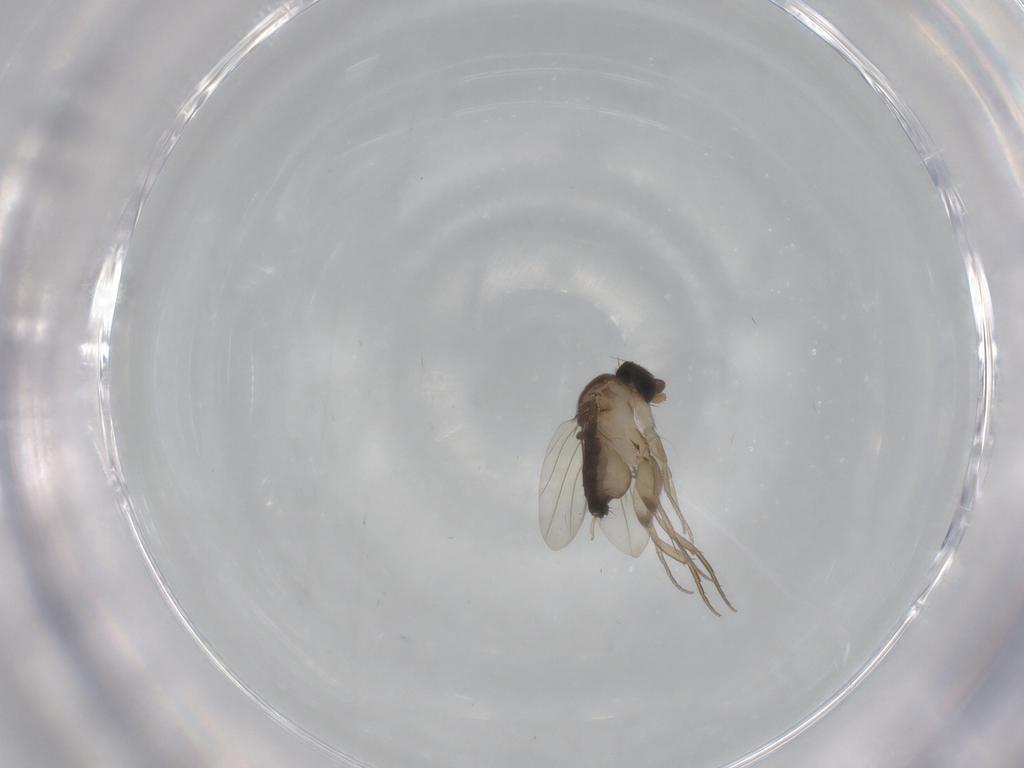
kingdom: Animalia
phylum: Arthropoda
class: Insecta
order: Diptera
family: Phoridae
